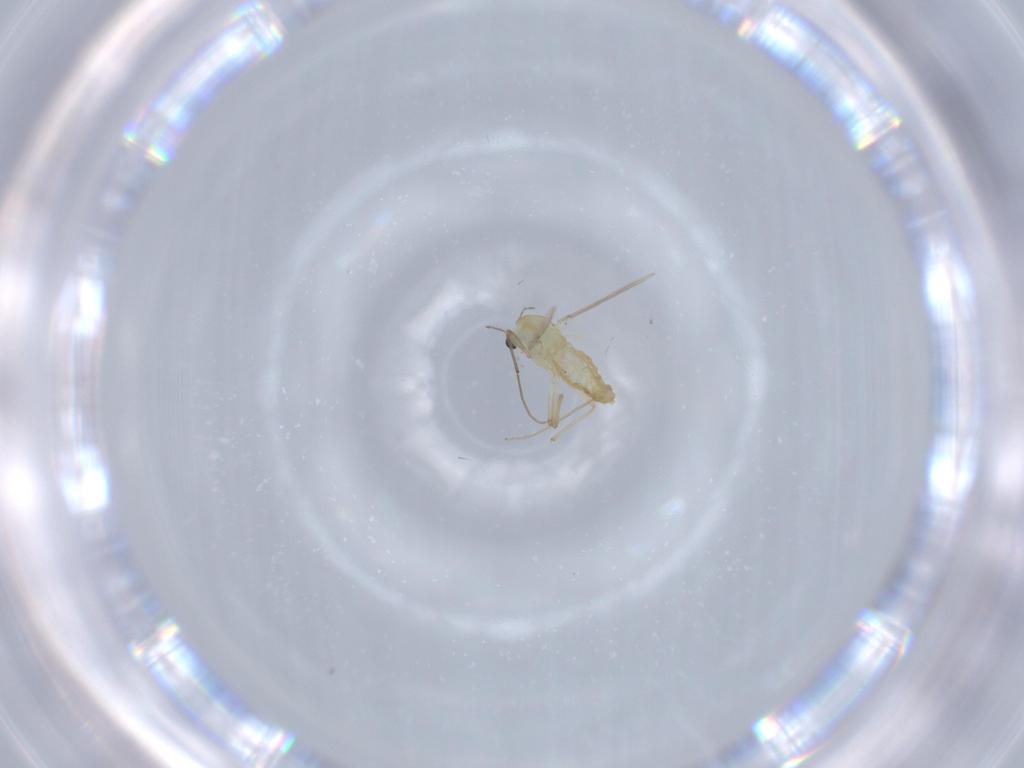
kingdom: Animalia
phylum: Arthropoda
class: Insecta
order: Diptera
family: Chironomidae
